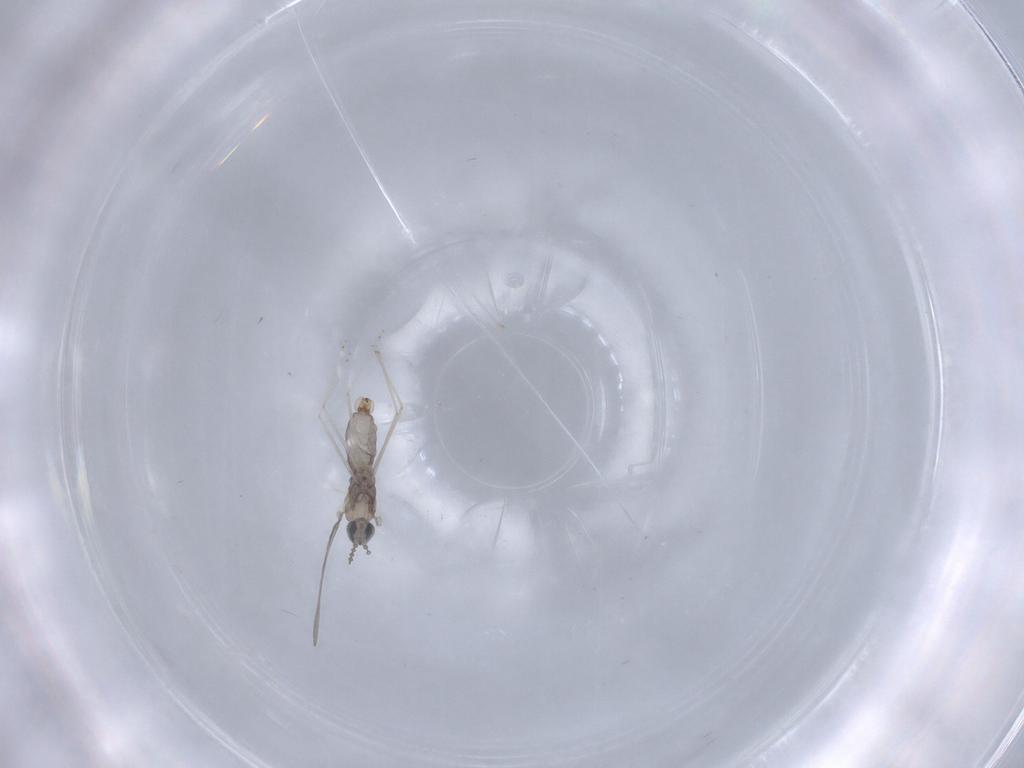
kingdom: Animalia
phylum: Arthropoda
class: Insecta
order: Diptera
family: Cecidomyiidae
